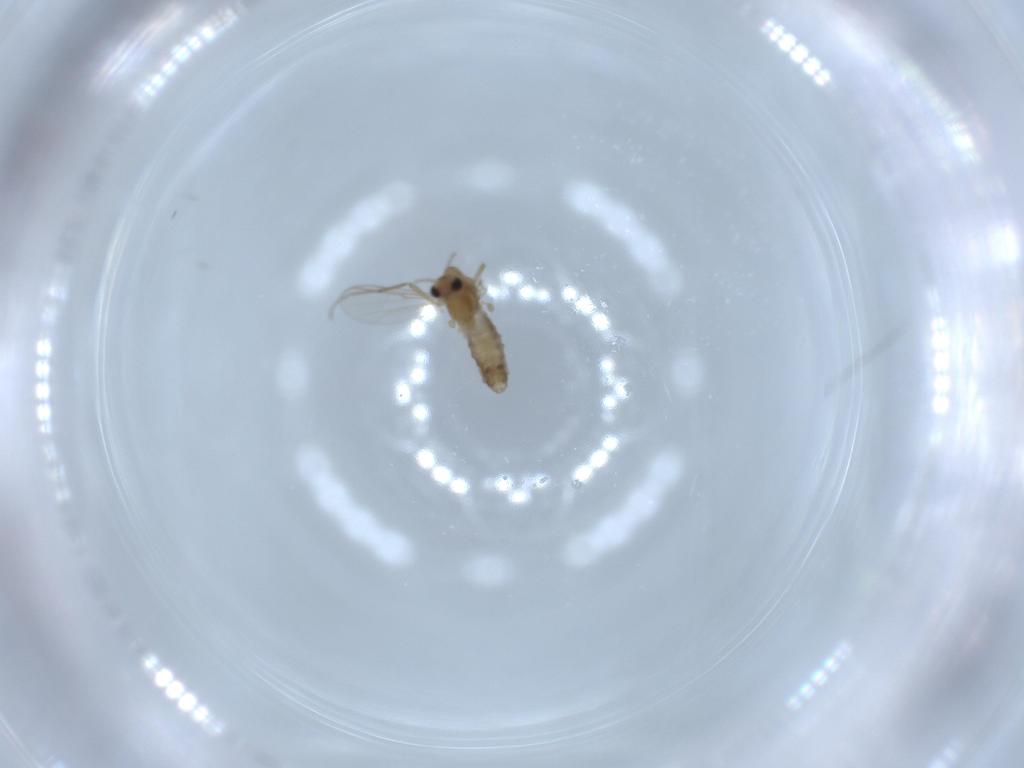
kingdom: Animalia
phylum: Arthropoda
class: Insecta
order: Diptera
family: Chironomidae
